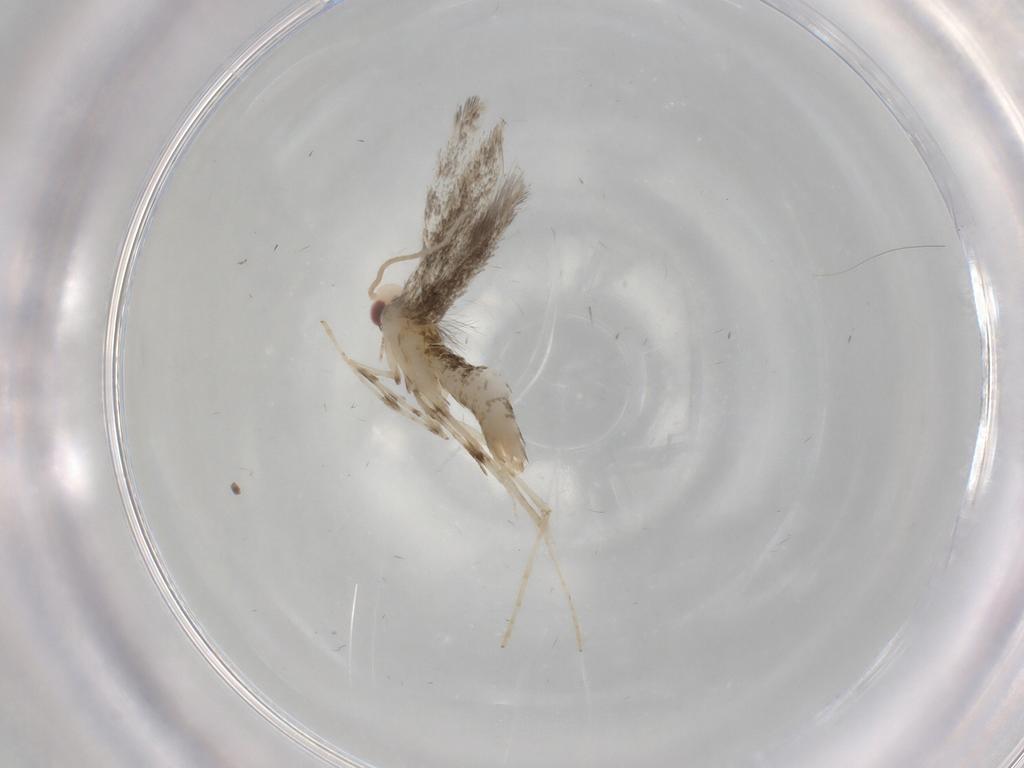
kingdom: Animalia
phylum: Arthropoda
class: Insecta
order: Lepidoptera
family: Gracillariidae
